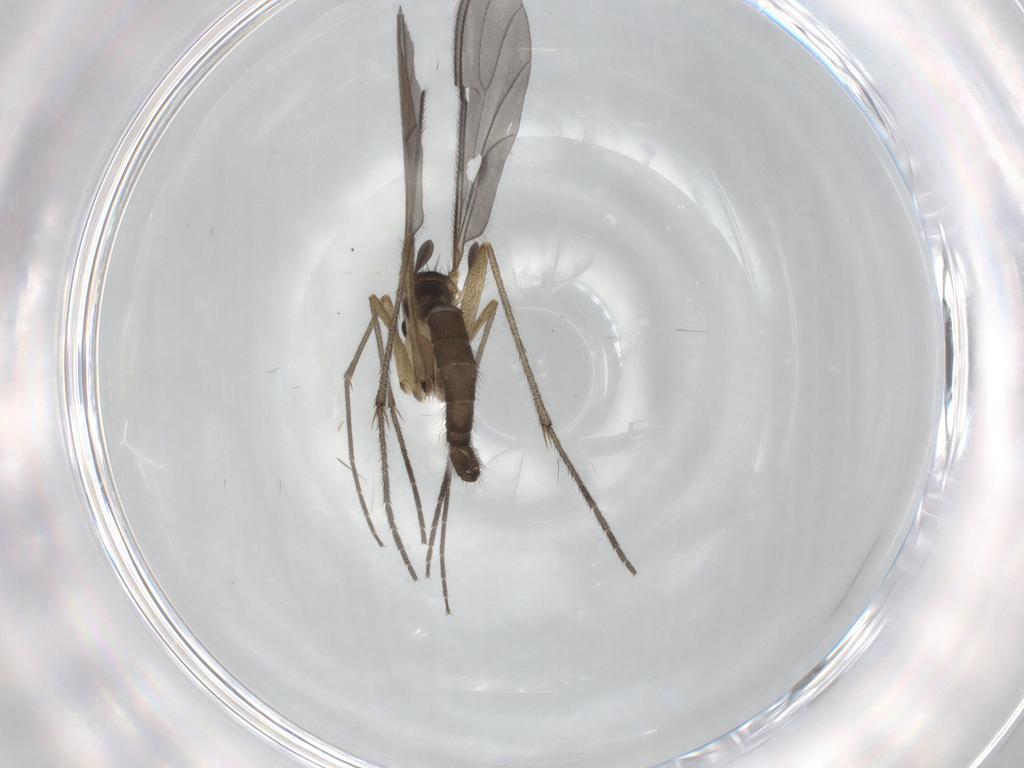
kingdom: Animalia
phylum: Arthropoda
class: Insecta
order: Diptera
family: Sciaridae
